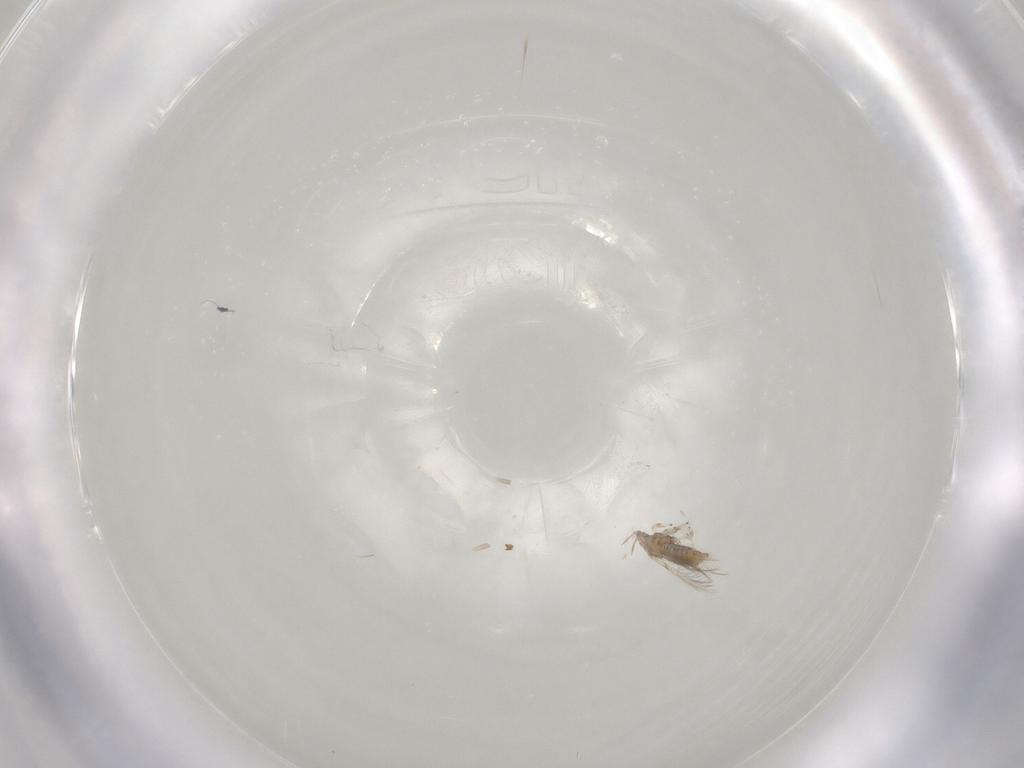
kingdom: Animalia
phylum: Arthropoda
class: Insecta
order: Thysanoptera
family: Thripidae
